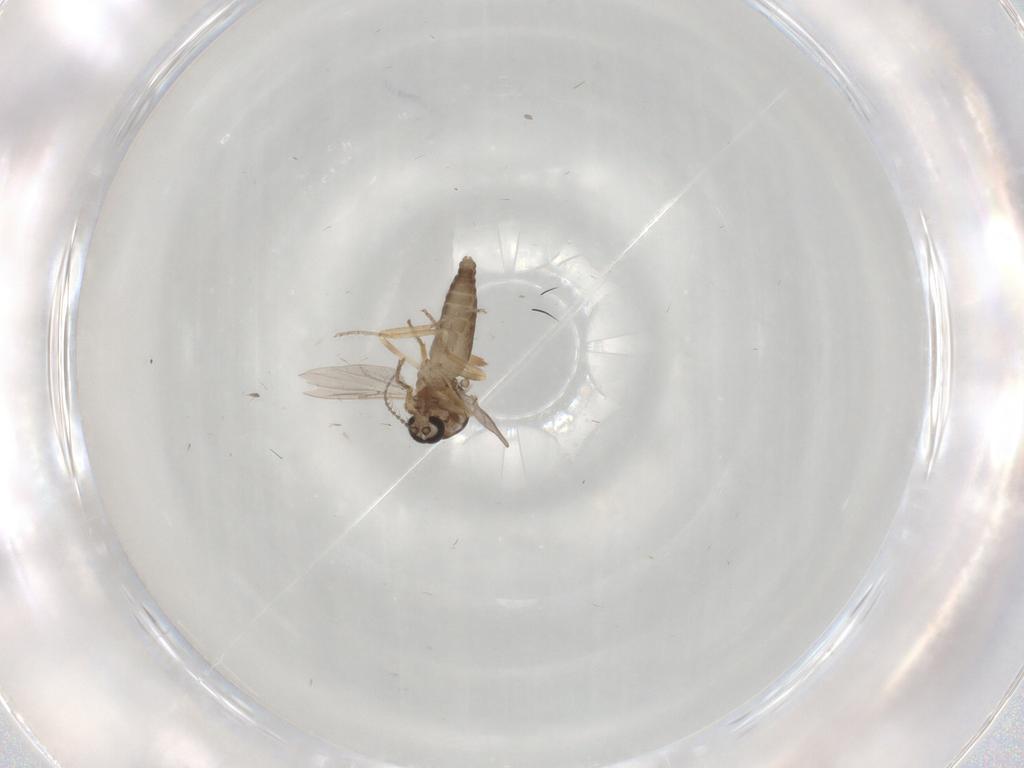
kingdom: Animalia
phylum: Arthropoda
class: Insecta
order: Diptera
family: Ceratopogonidae
